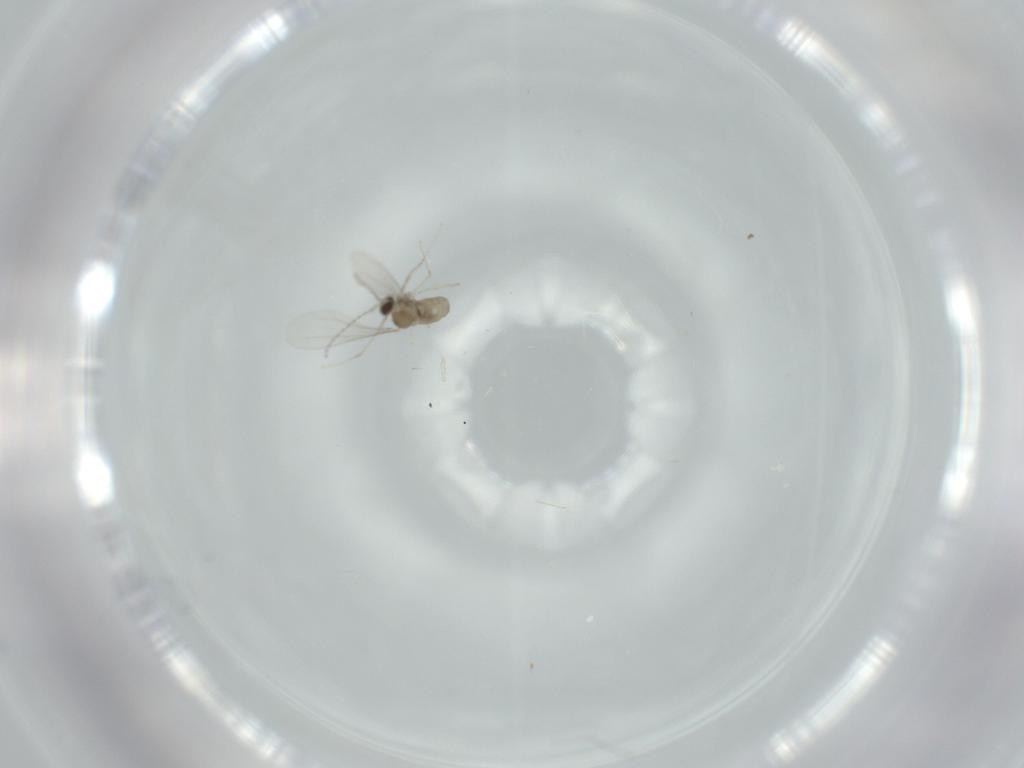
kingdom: Animalia
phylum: Arthropoda
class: Insecta
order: Diptera
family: Cecidomyiidae
